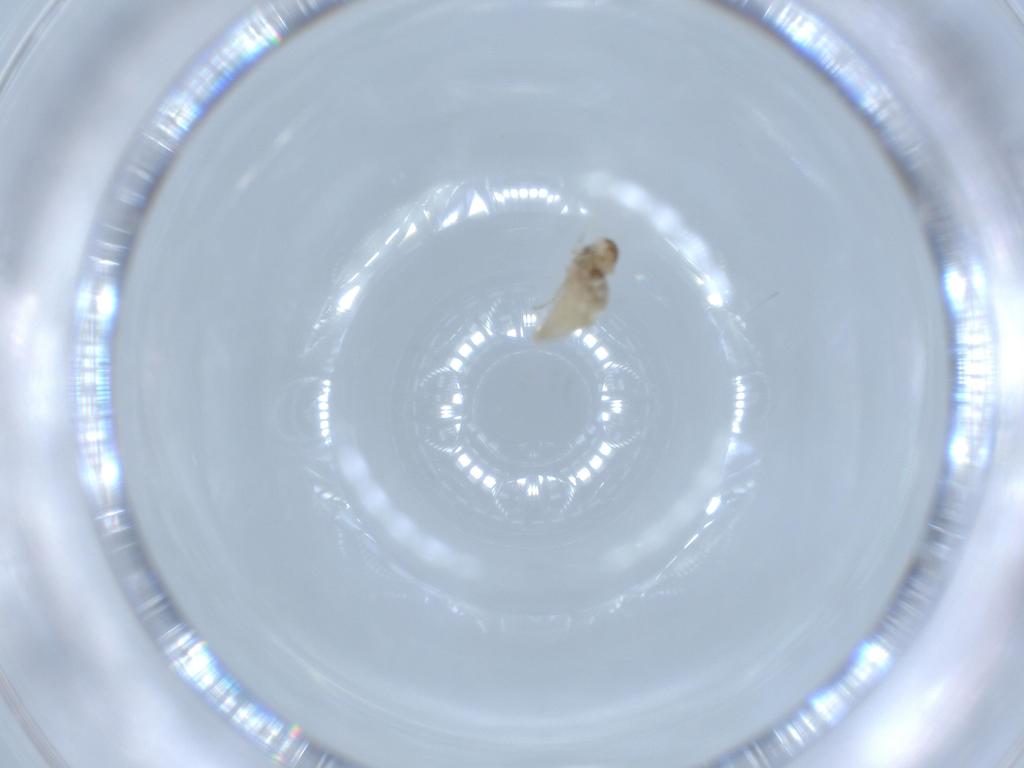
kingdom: Animalia
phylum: Arthropoda
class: Insecta
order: Diptera
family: Cecidomyiidae
